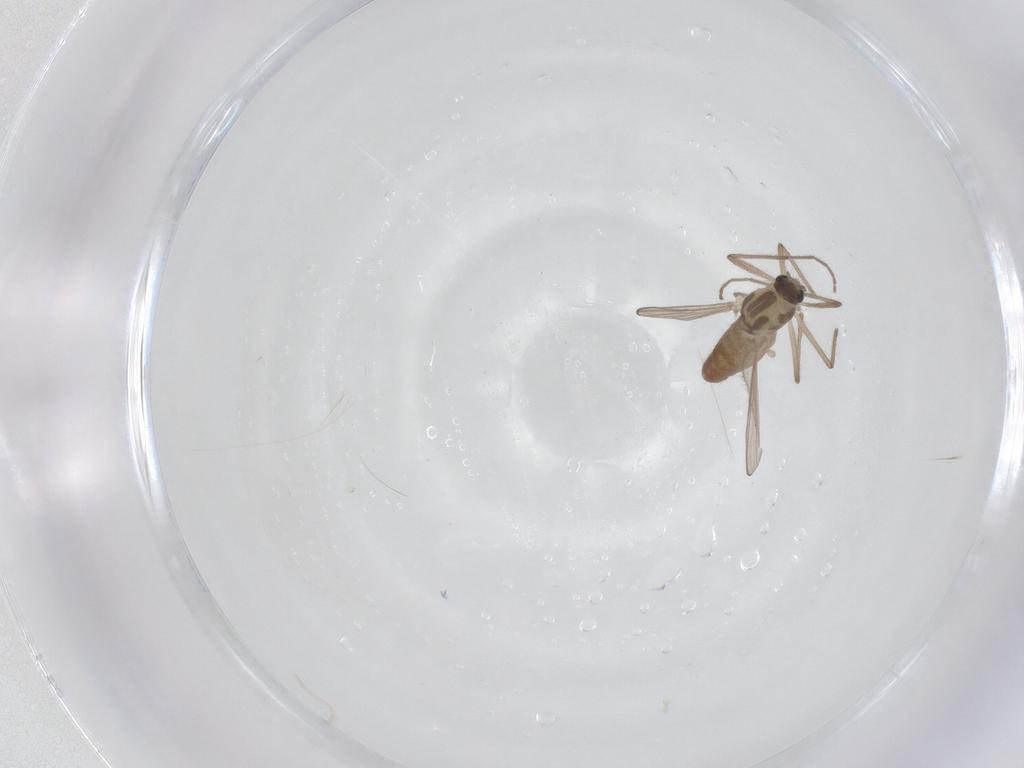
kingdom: Animalia
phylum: Arthropoda
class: Insecta
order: Diptera
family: Chironomidae
